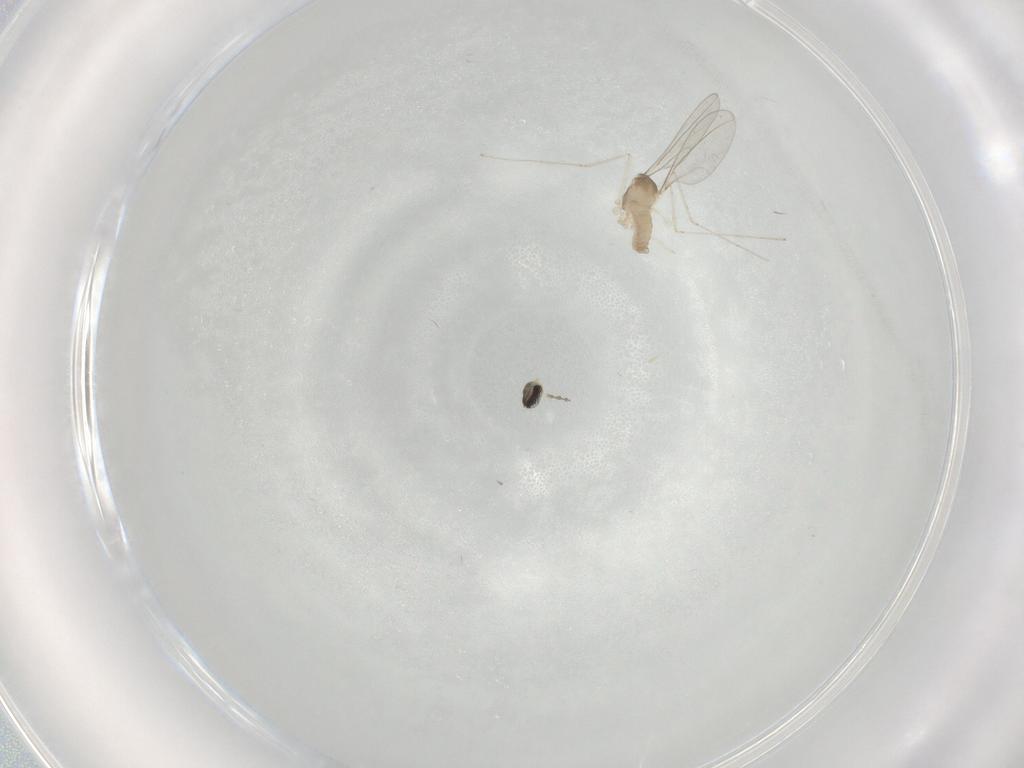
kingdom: Animalia
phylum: Arthropoda
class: Insecta
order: Diptera
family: Cecidomyiidae
